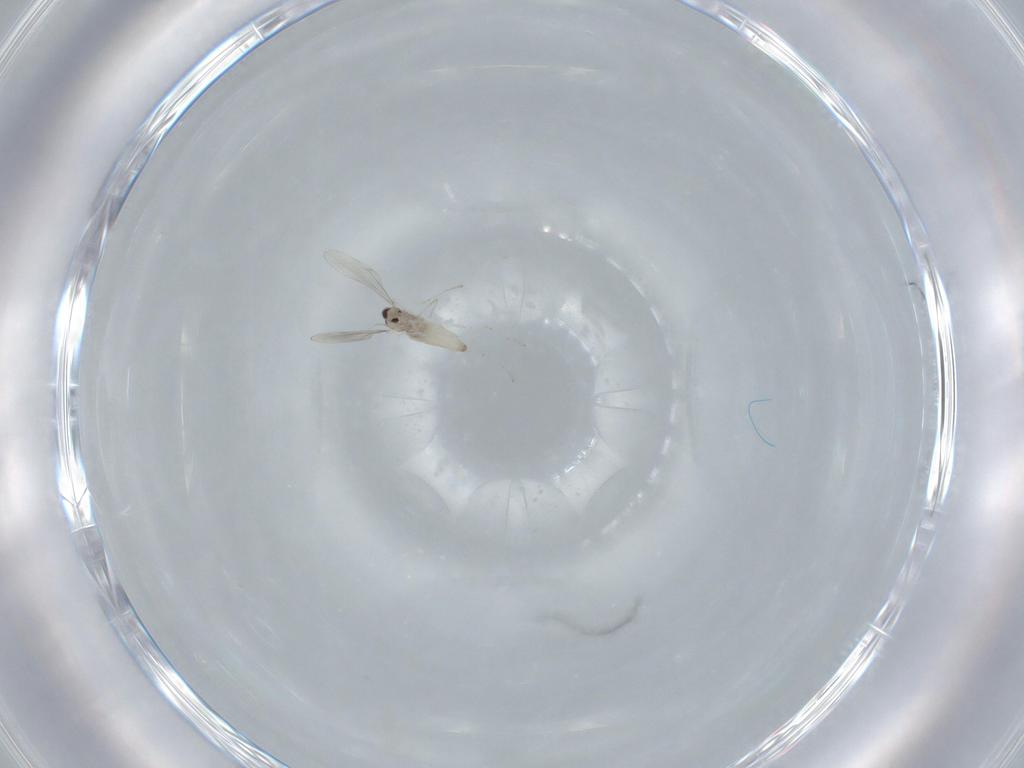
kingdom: Animalia
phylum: Arthropoda
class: Insecta
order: Diptera
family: Cecidomyiidae
